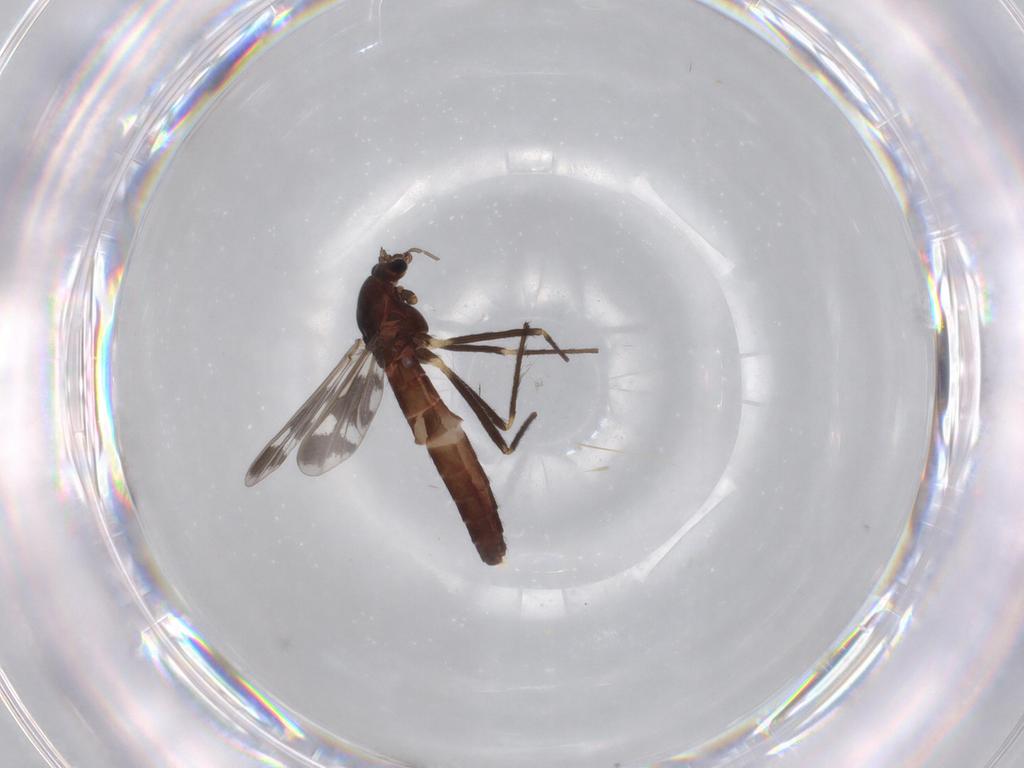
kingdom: Animalia
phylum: Arthropoda
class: Insecta
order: Diptera
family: Chironomidae
